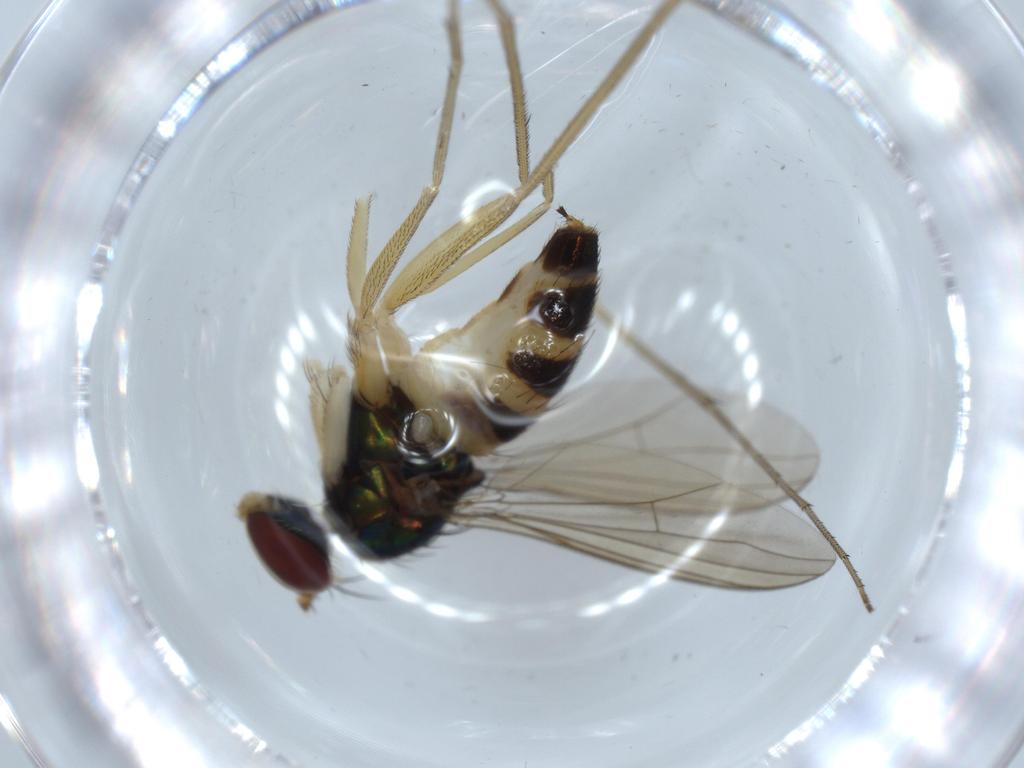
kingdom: Animalia
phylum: Arthropoda
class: Insecta
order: Diptera
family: Dolichopodidae
